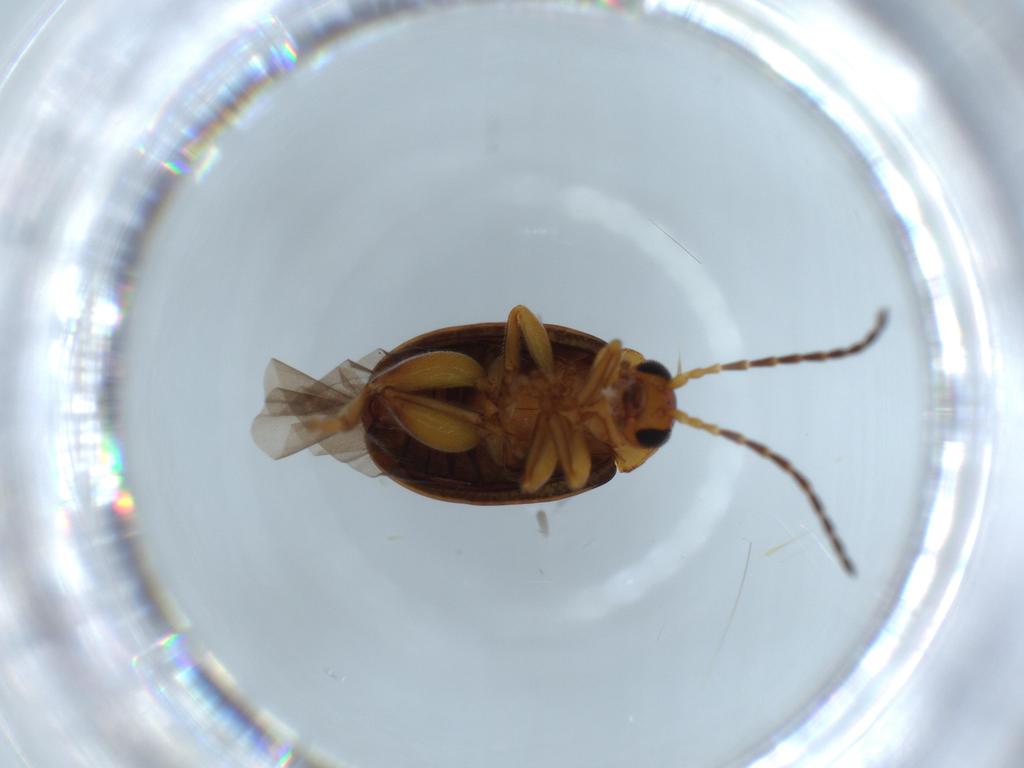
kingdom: Animalia
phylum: Arthropoda
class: Insecta
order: Coleoptera
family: Chrysomelidae
